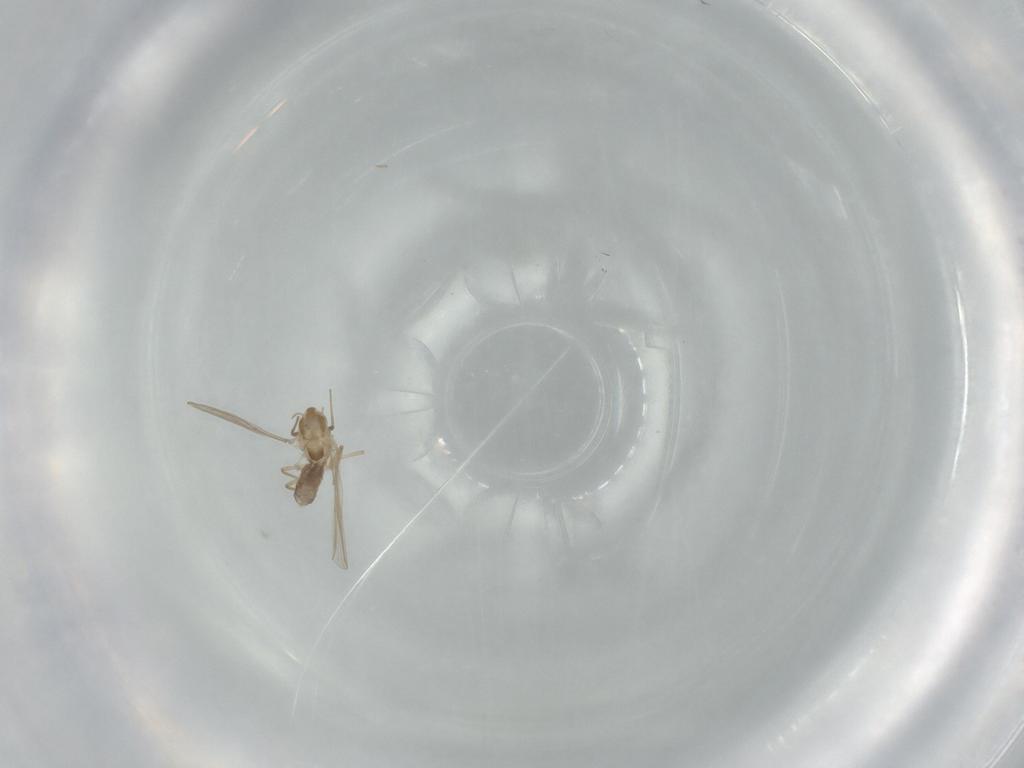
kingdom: Animalia
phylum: Arthropoda
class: Insecta
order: Diptera
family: Chironomidae
